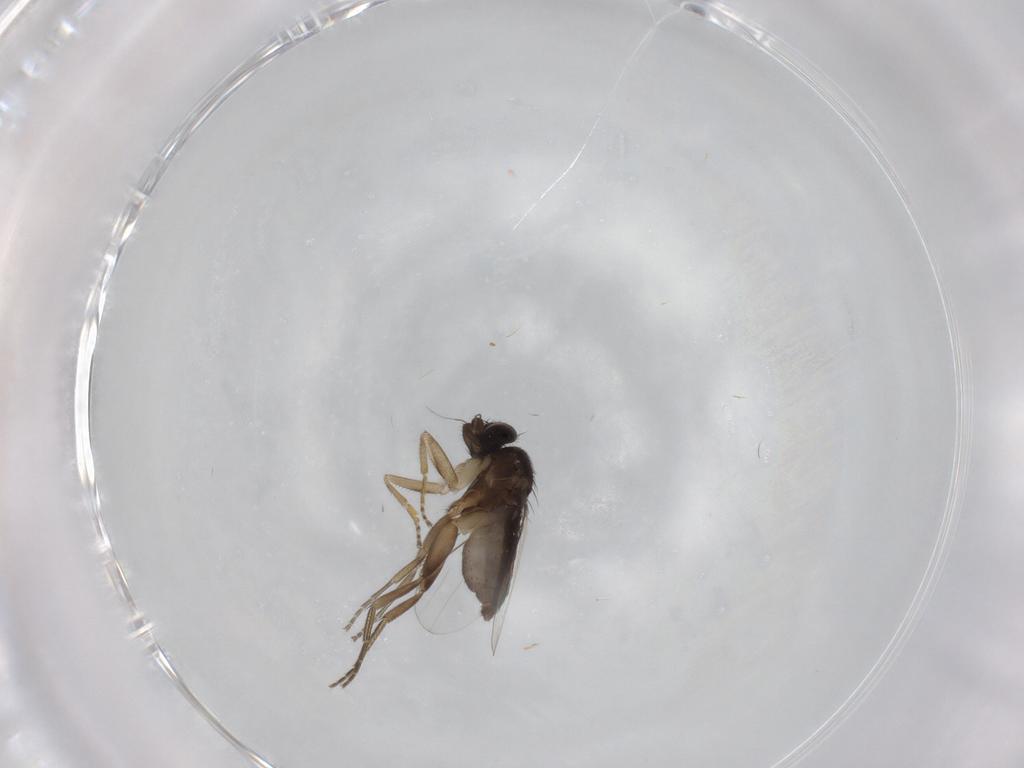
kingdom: Animalia
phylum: Arthropoda
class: Insecta
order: Diptera
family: Phoridae
